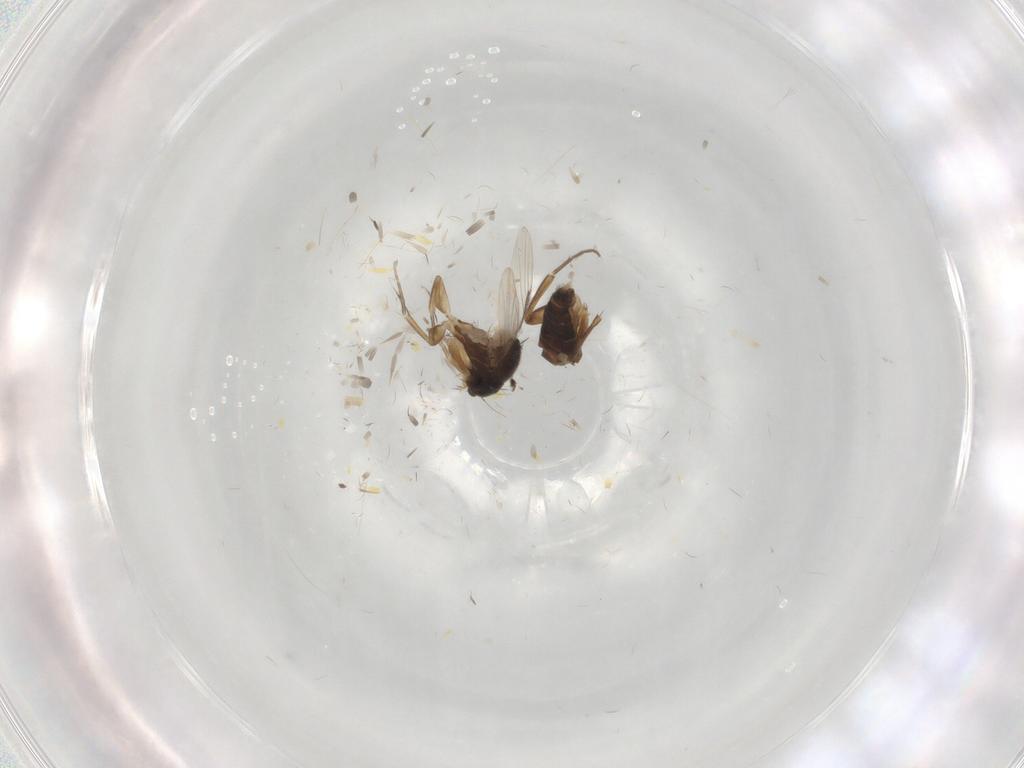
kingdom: Animalia
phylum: Arthropoda
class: Insecta
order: Diptera
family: Phoridae
